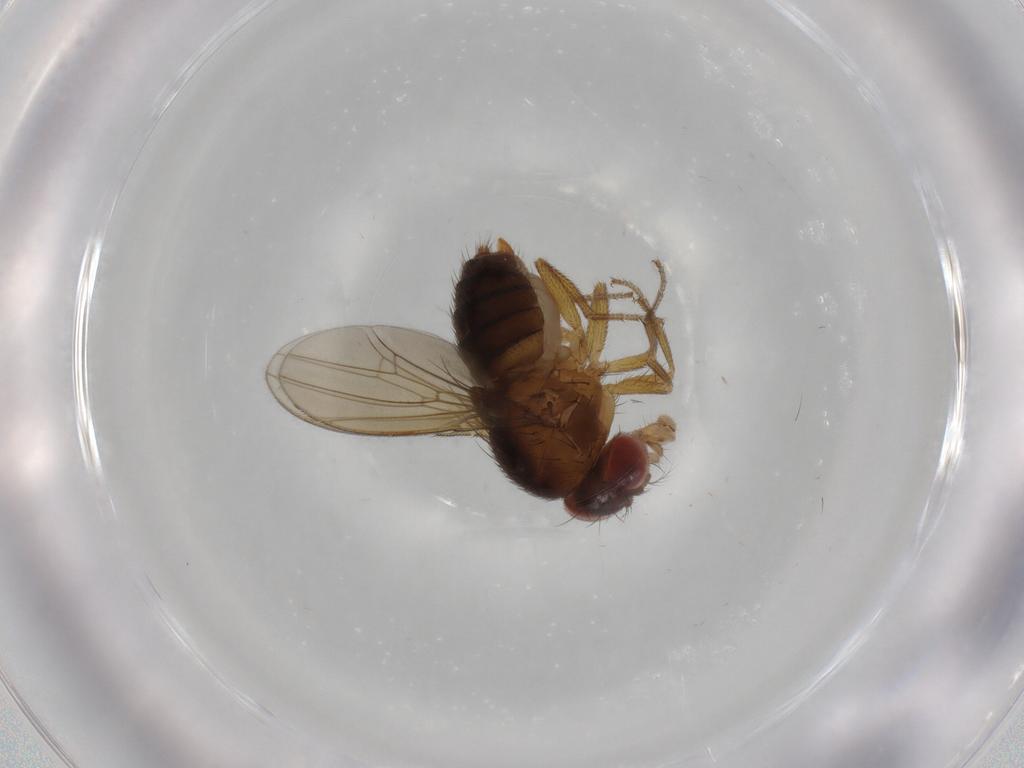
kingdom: Animalia
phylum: Arthropoda
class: Insecta
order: Diptera
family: Drosophilidae
